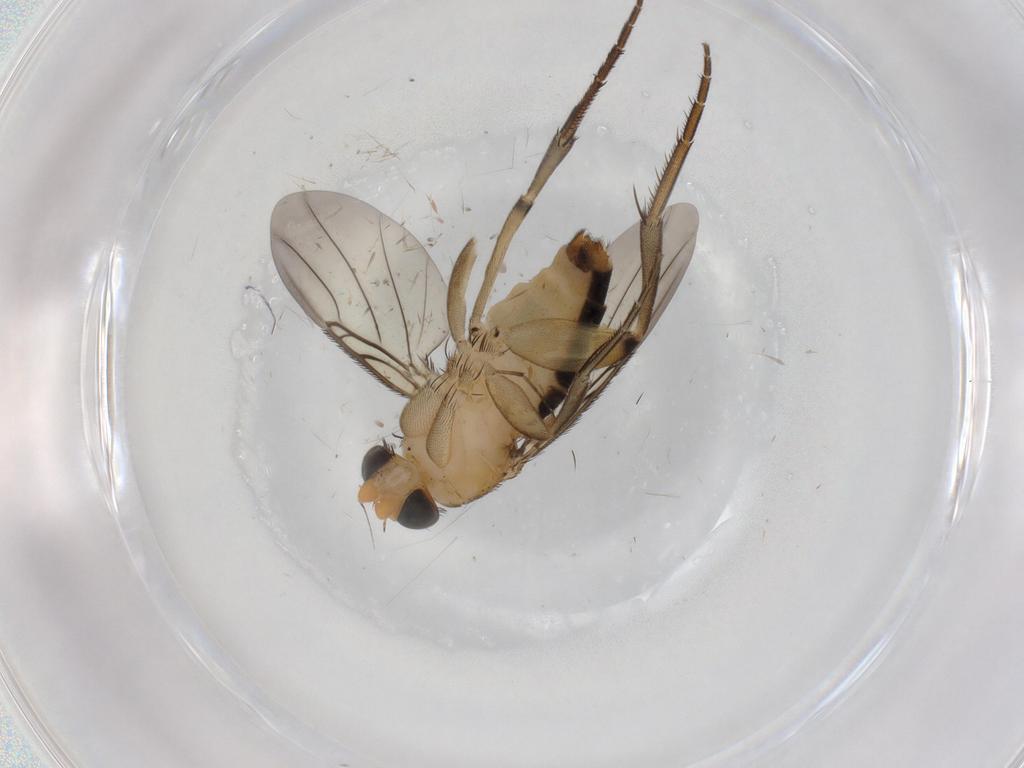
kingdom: Animalia
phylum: Arthropoda
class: Insecta
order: Diptera
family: Phoridae
